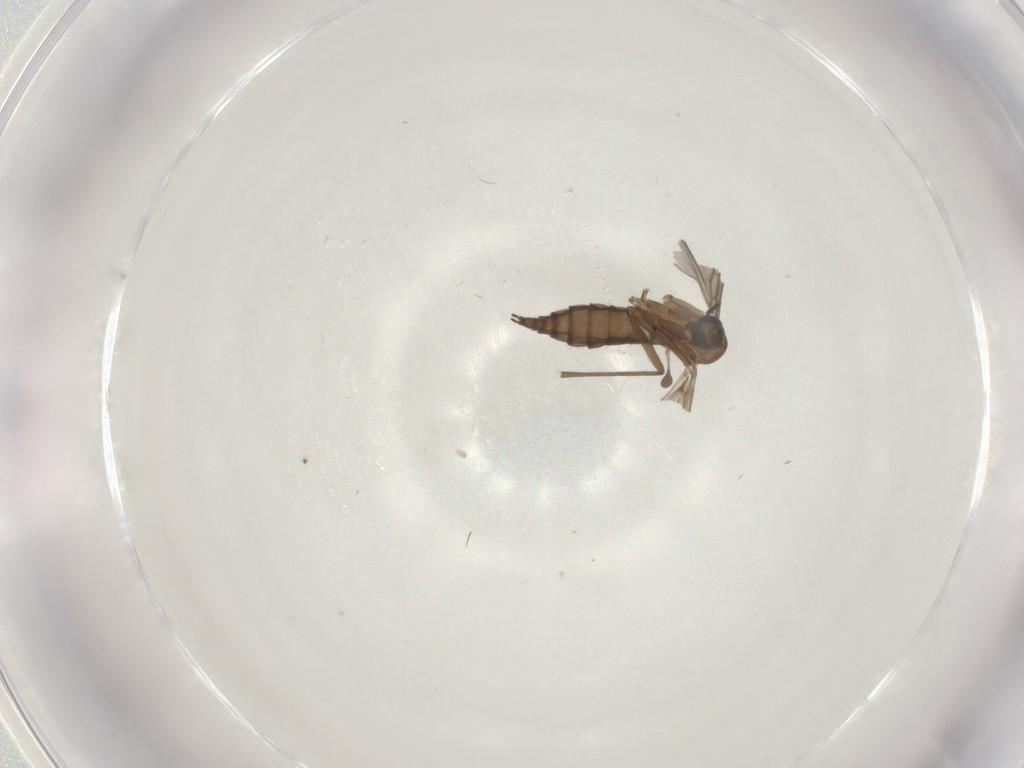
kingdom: Animalia
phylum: Arthropoda
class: Insecta
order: Diptera
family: Sciaridae
